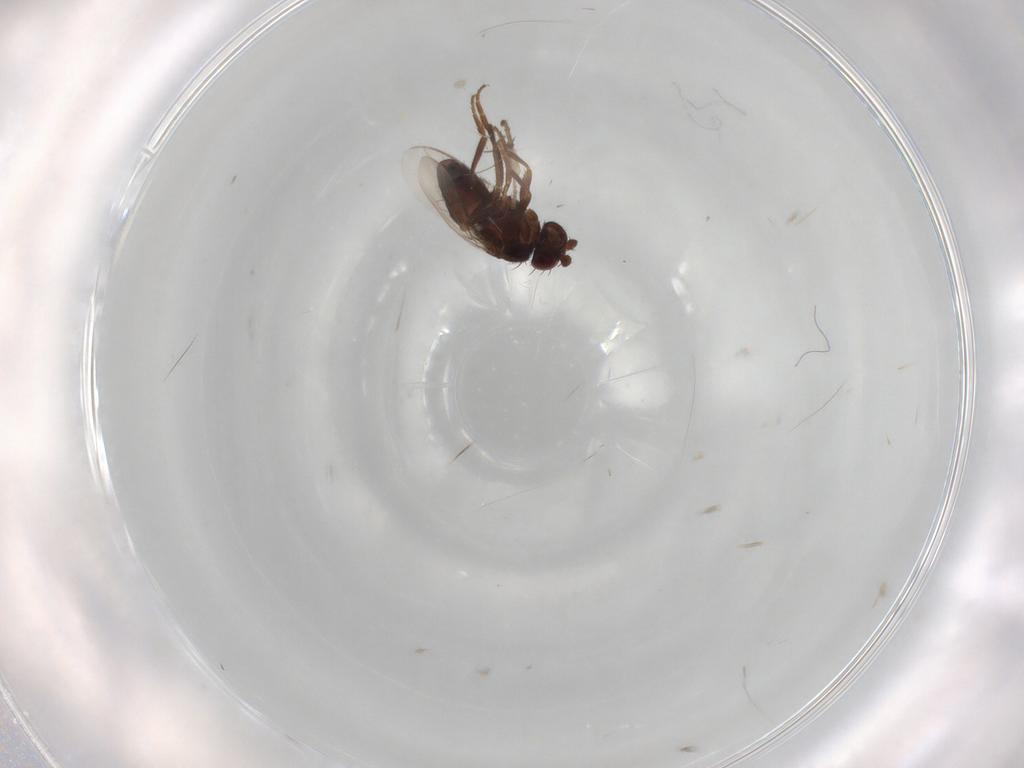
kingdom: Animalia
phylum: Arthropoda
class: Insecta
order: Diptera
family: Sphaeroceridae
